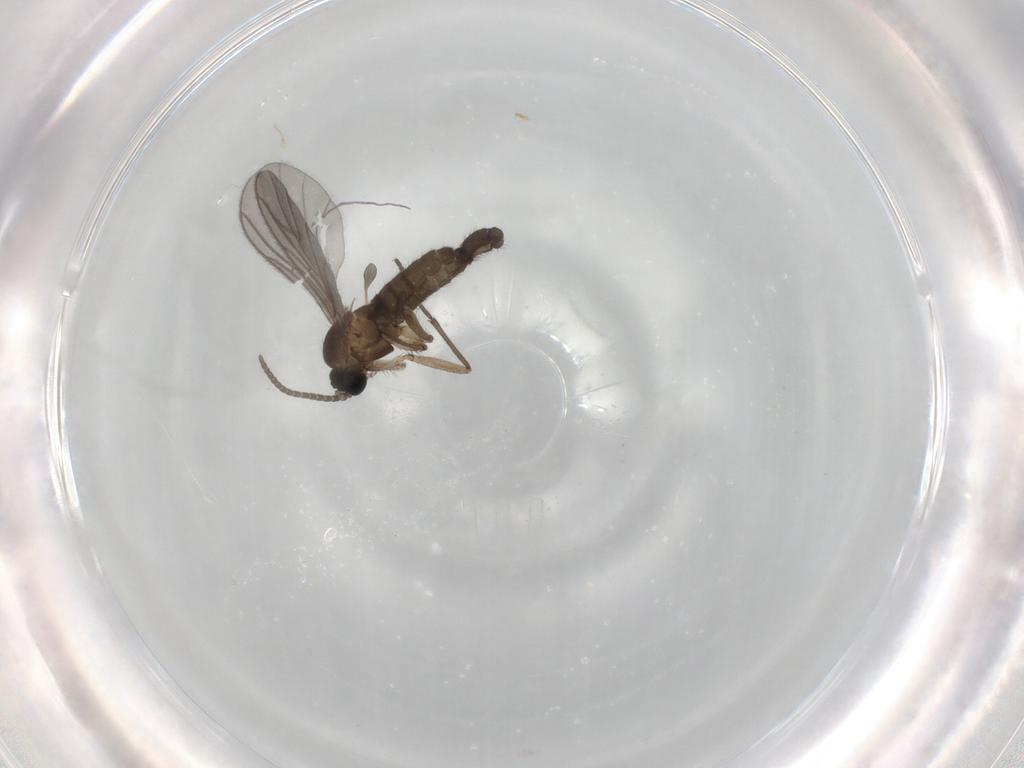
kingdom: Animalia
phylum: Arthropoda
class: Insecta
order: Diptera
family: Sciaridae
